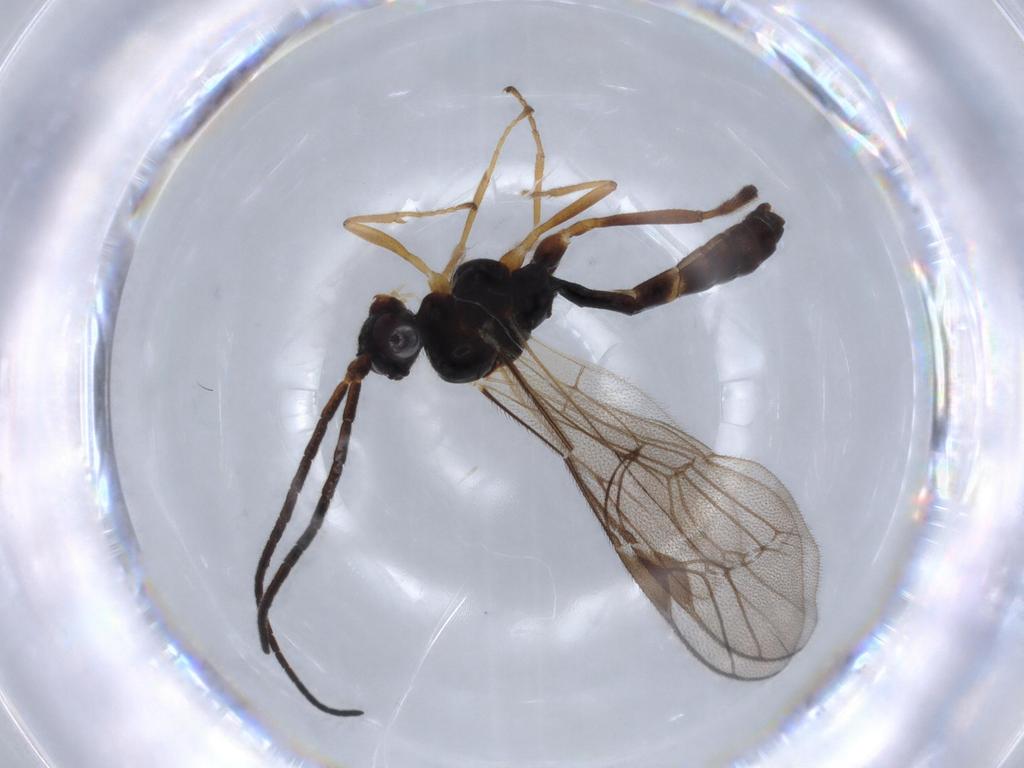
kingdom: Animalia
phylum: Arthropoda
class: Insecta
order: Hymenoptera
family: Ichneumonidae
